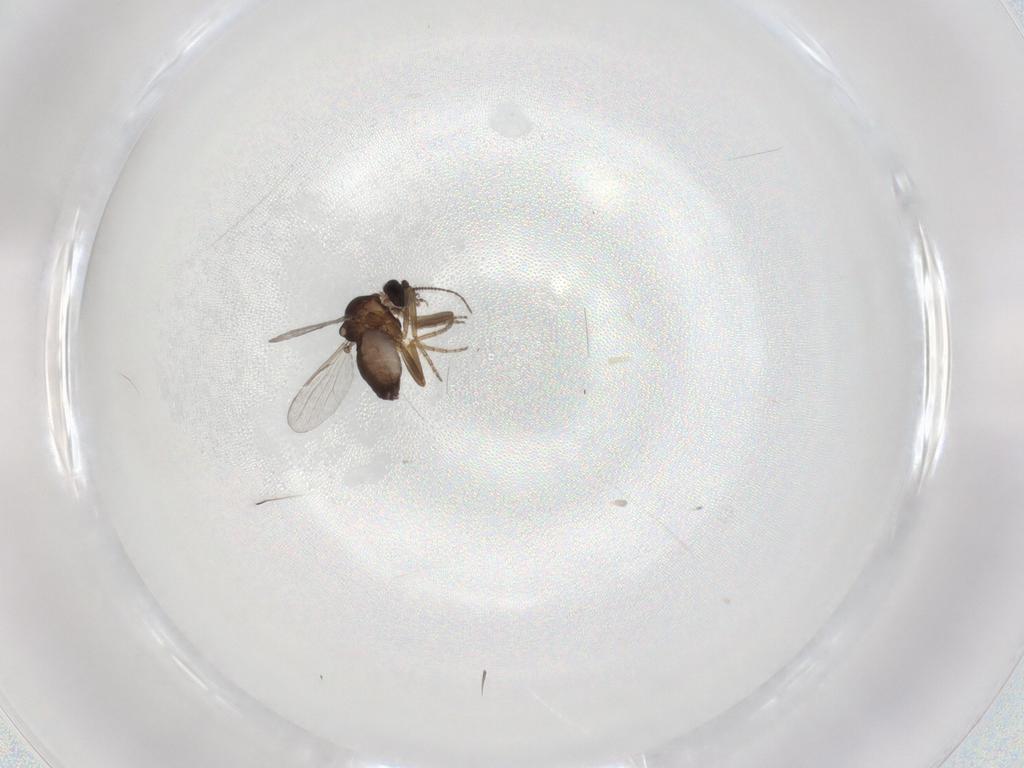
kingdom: Animalia
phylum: Arthropoda
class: Insecta
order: Diptera
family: Ceratopogonidae
